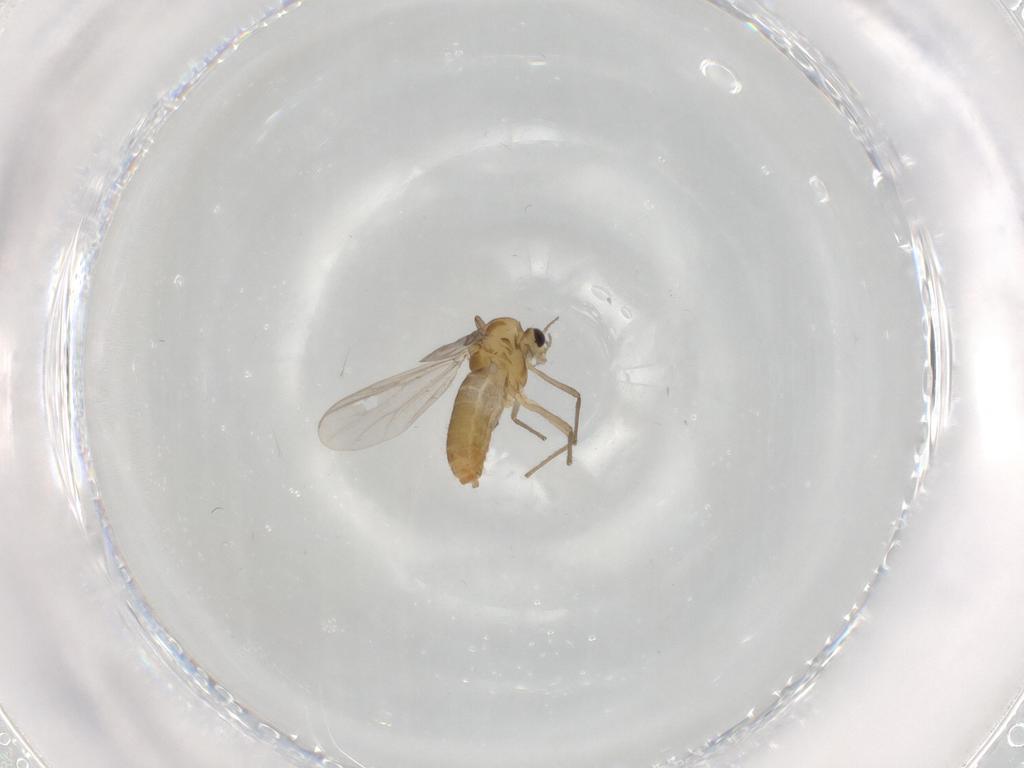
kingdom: Animalia
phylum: Arthropoda
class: Insecta
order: Diptera
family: Chironomidae
